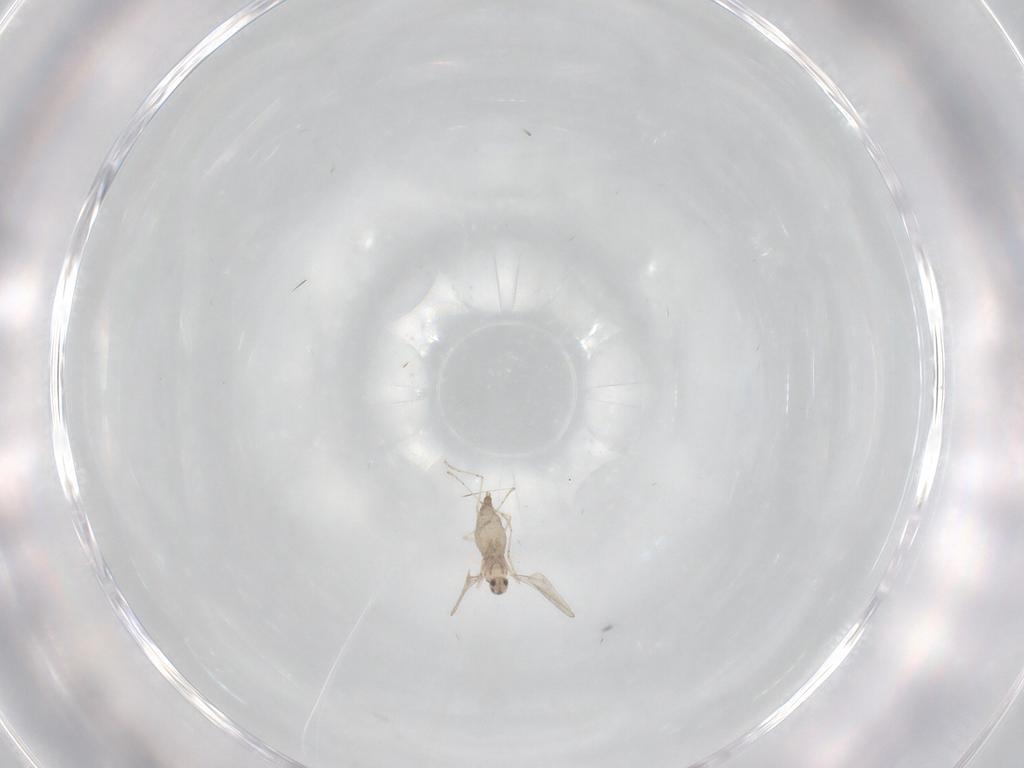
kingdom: Animalia
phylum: Arthropoda
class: Insecta
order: Diptera
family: Cecidomyiidae
